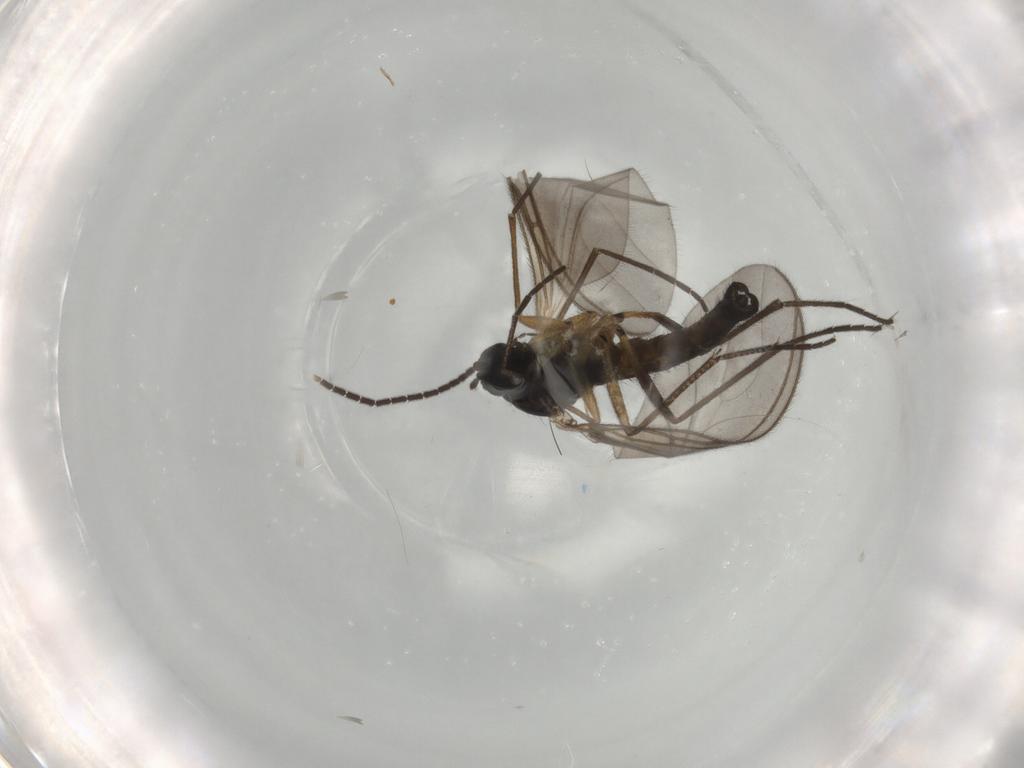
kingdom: Animalia
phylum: Arthropoda
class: Insecta
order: Diptera
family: Sciaridae
